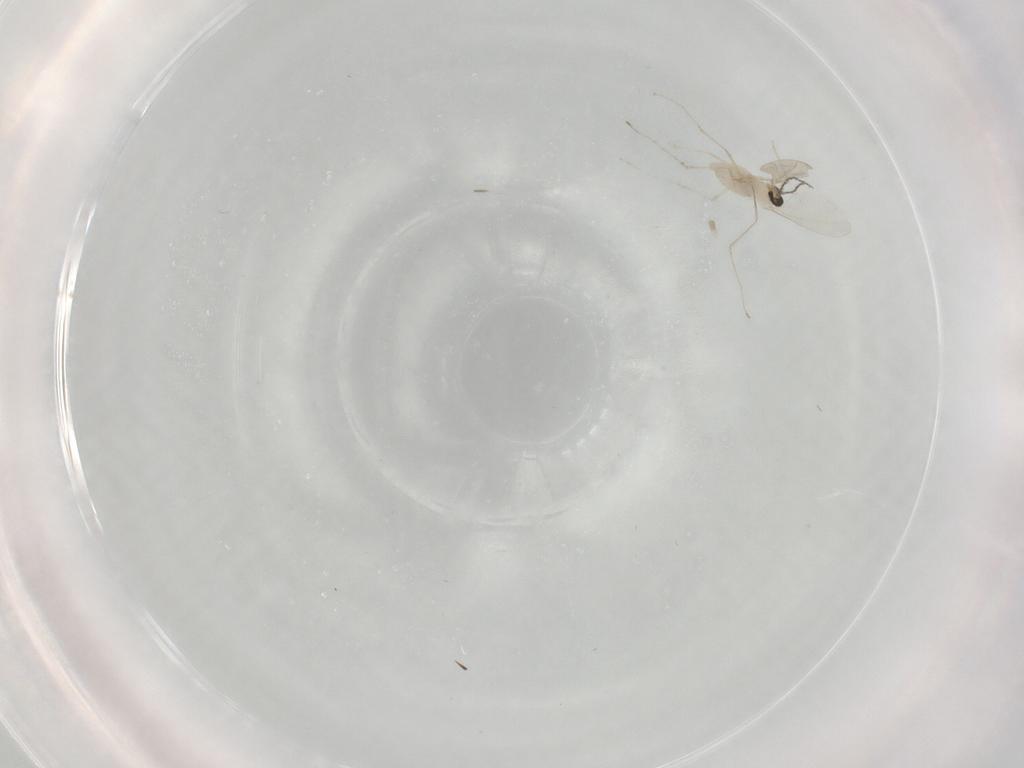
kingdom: Animalia
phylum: Arthropoda
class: Insecta
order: Diptera
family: Cecidomyiidae
